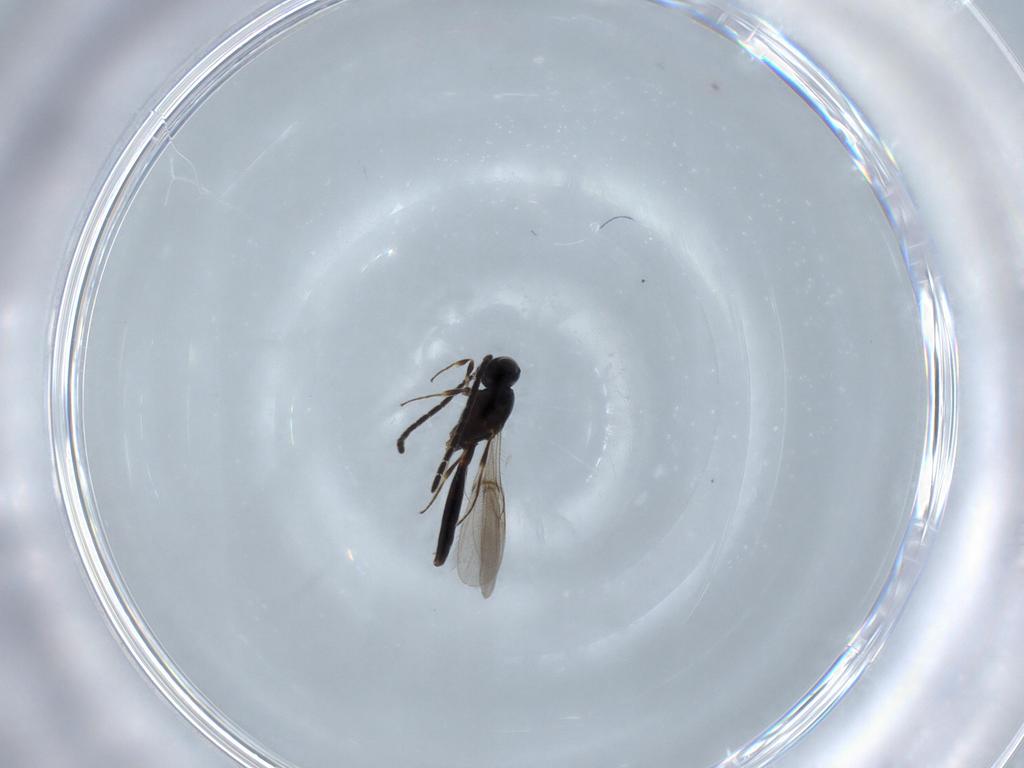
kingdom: Animalia
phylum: Arthropoda
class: Insecta
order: Hymenoptera
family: Scelionidae
